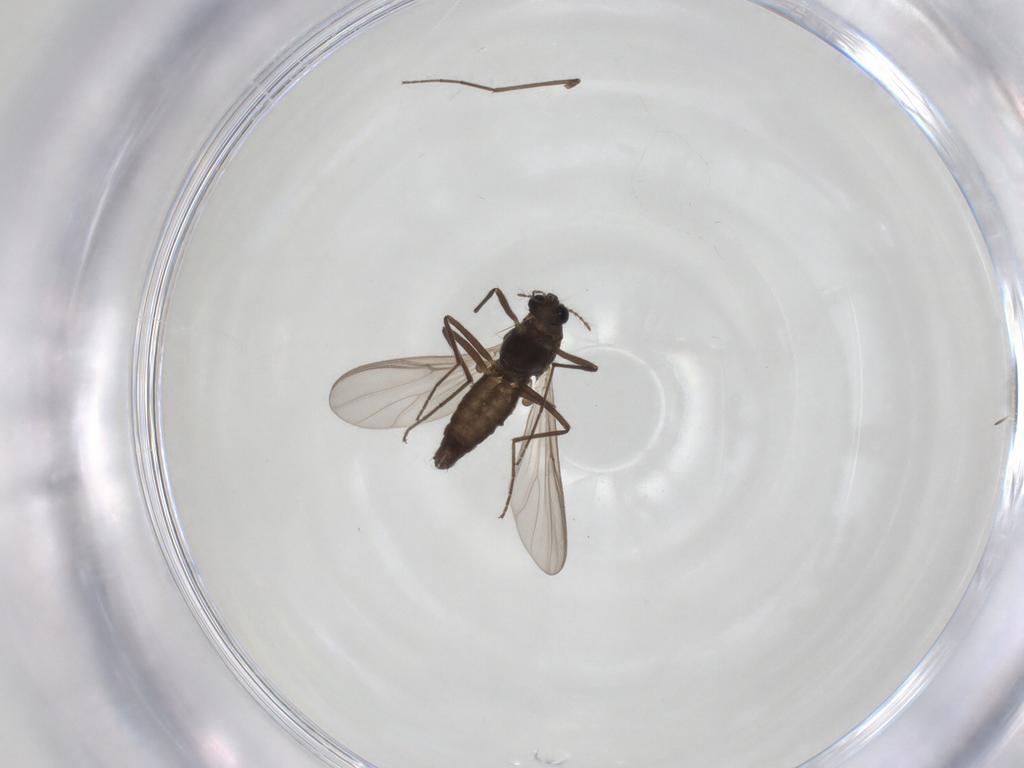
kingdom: Animalia
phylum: Arthropoda
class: Insecta
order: Diptera
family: Chironomidae
